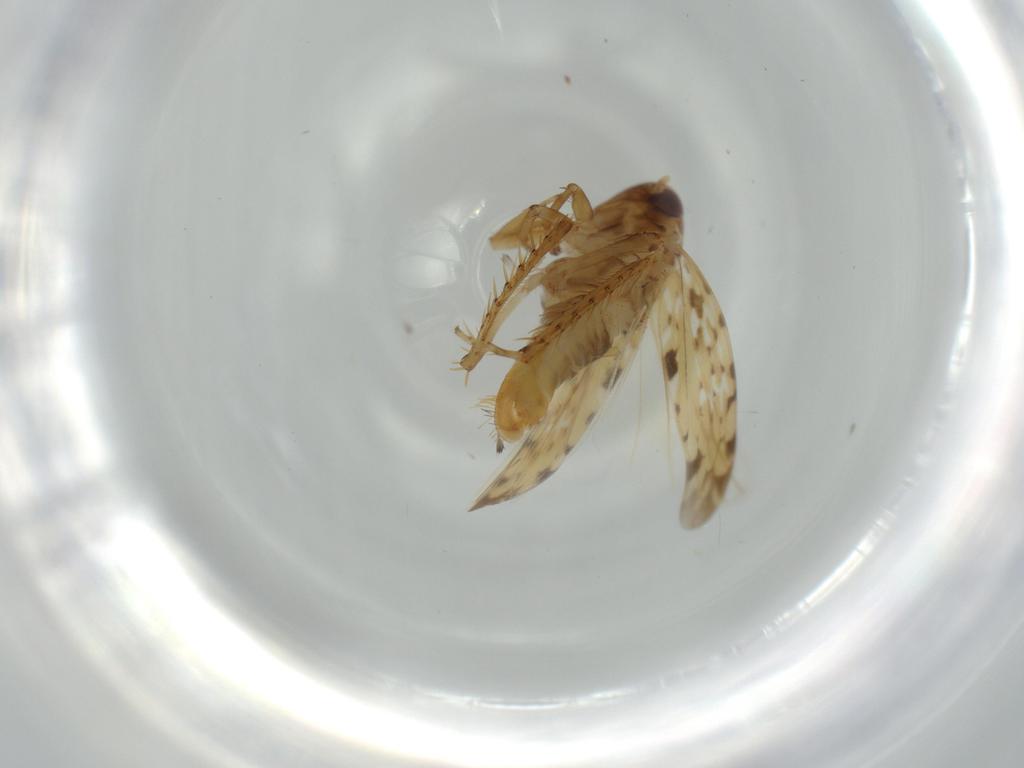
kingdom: Animalia
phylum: Arthropoda
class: Insecta
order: Hemiptera
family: Cicadellidae
